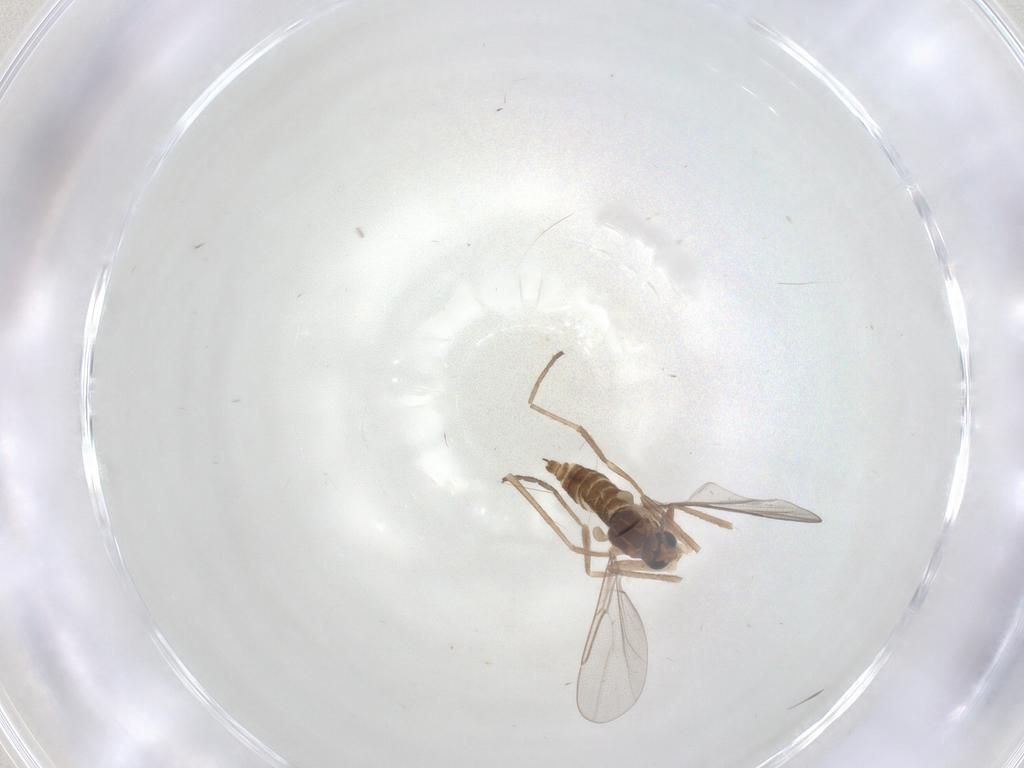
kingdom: Animalia
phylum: Arthropoda
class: Insecta
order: Diptera
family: Cecidomyiidae
